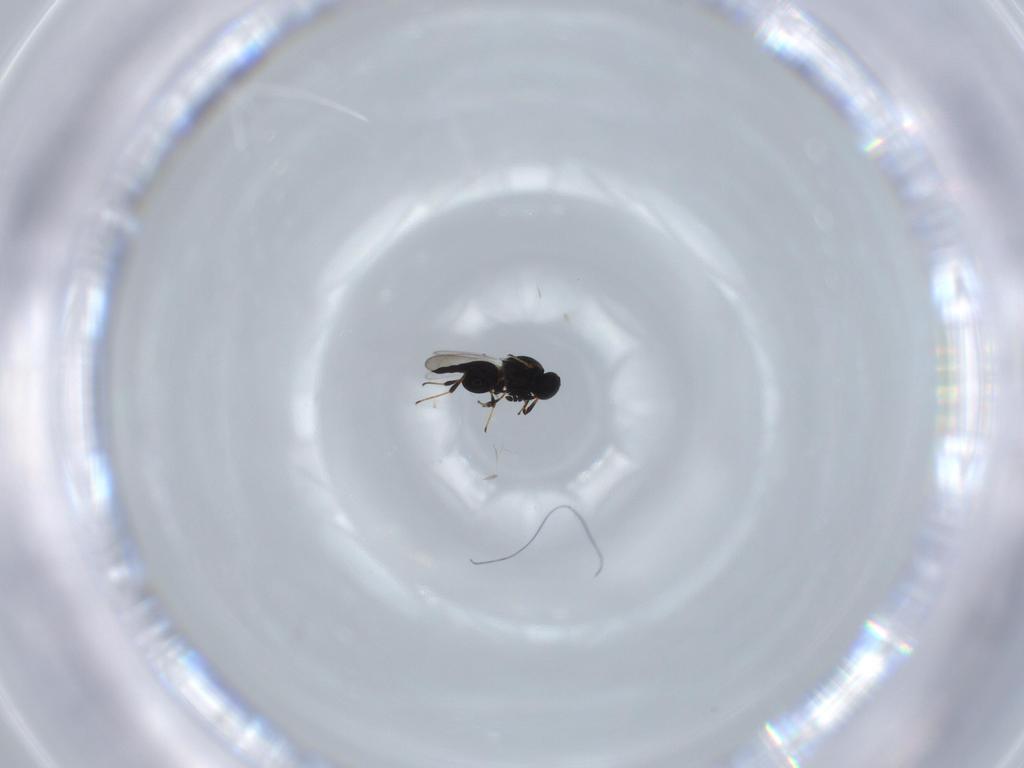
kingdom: Animalia
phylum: Arthropoda
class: Insecta
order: Hymenoptera
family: Platygastridae
